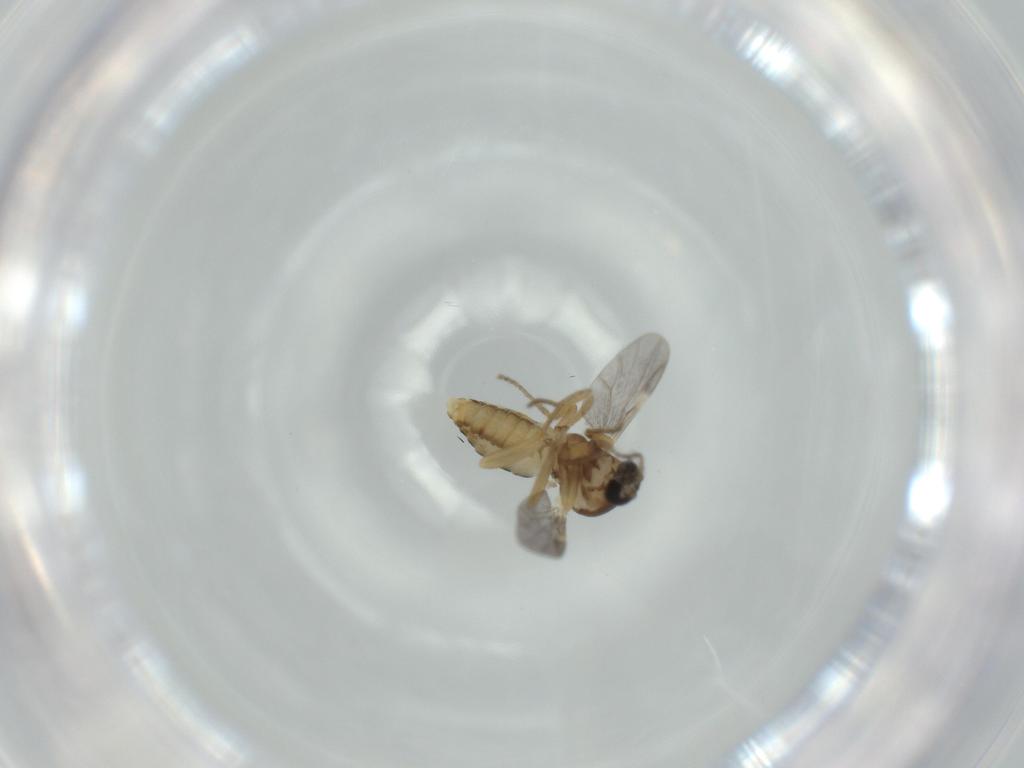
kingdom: Animalia
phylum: Arthropoda
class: Insecta
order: Diptera
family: Ceratopogonidae
